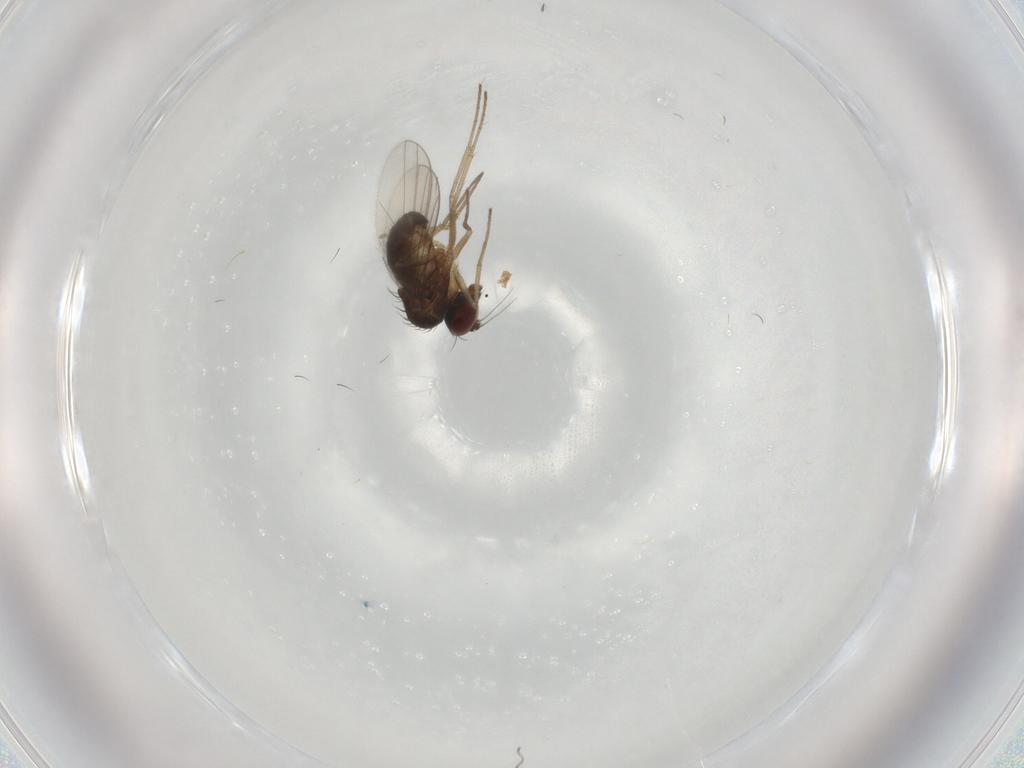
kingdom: Animalia
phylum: Arthropoda
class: Insecta
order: Diptera
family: Dolichopodidae
